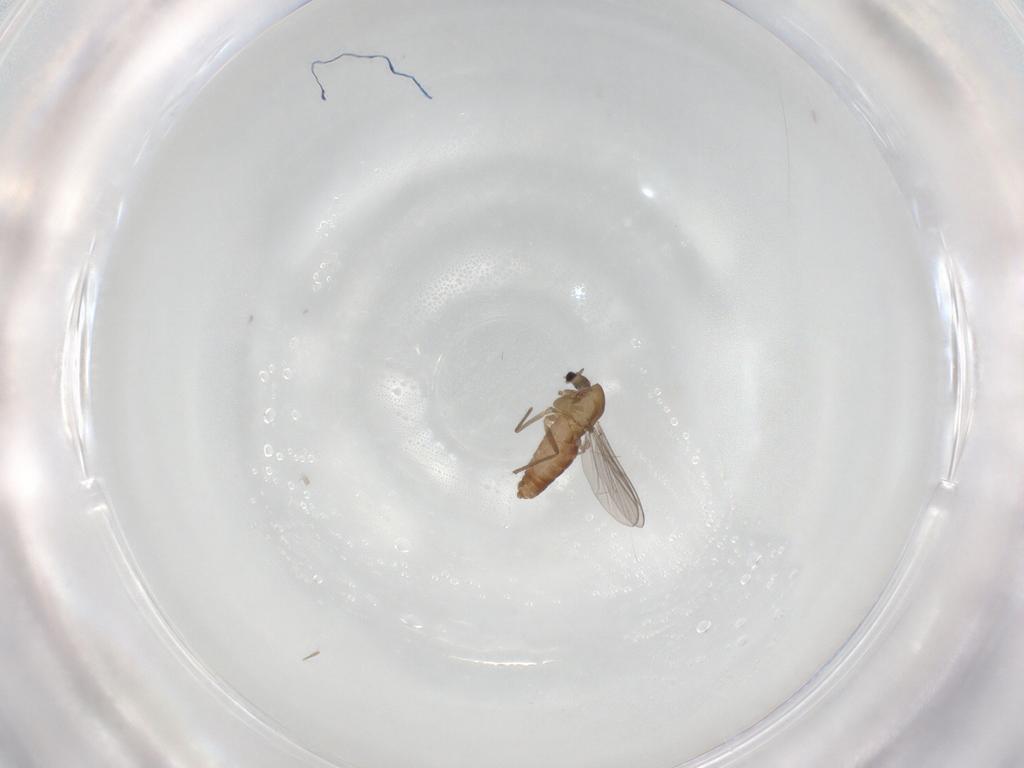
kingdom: Animalia
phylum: Arthropoda
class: Insecta
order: Diptera
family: Chironomidae
